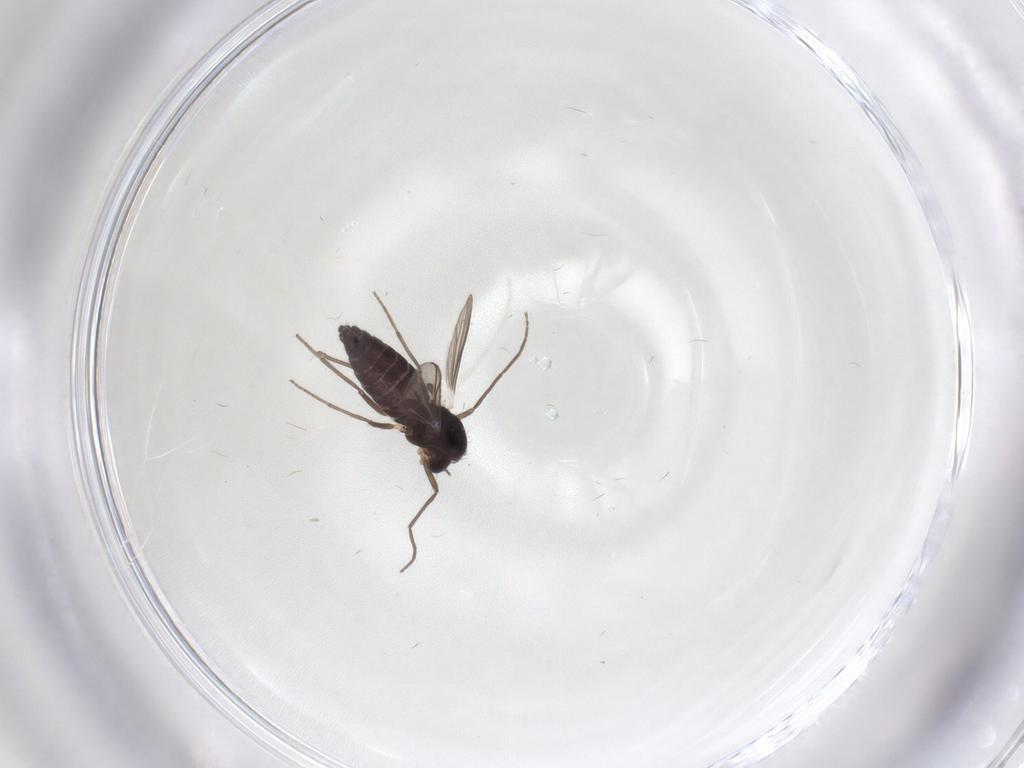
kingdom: Animalia
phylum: Arthropoda
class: Insecta
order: Diptera
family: Chironomidae
